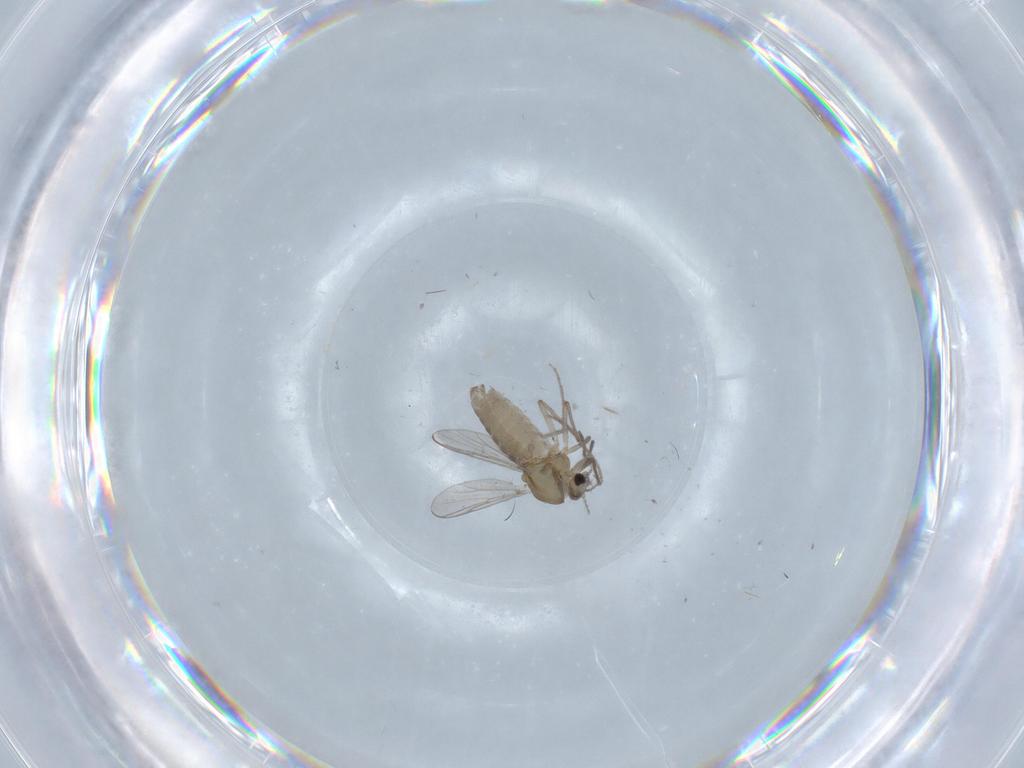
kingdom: Animalia
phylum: Arthropoda
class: Insecta
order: Diptera
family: Chironomidae
